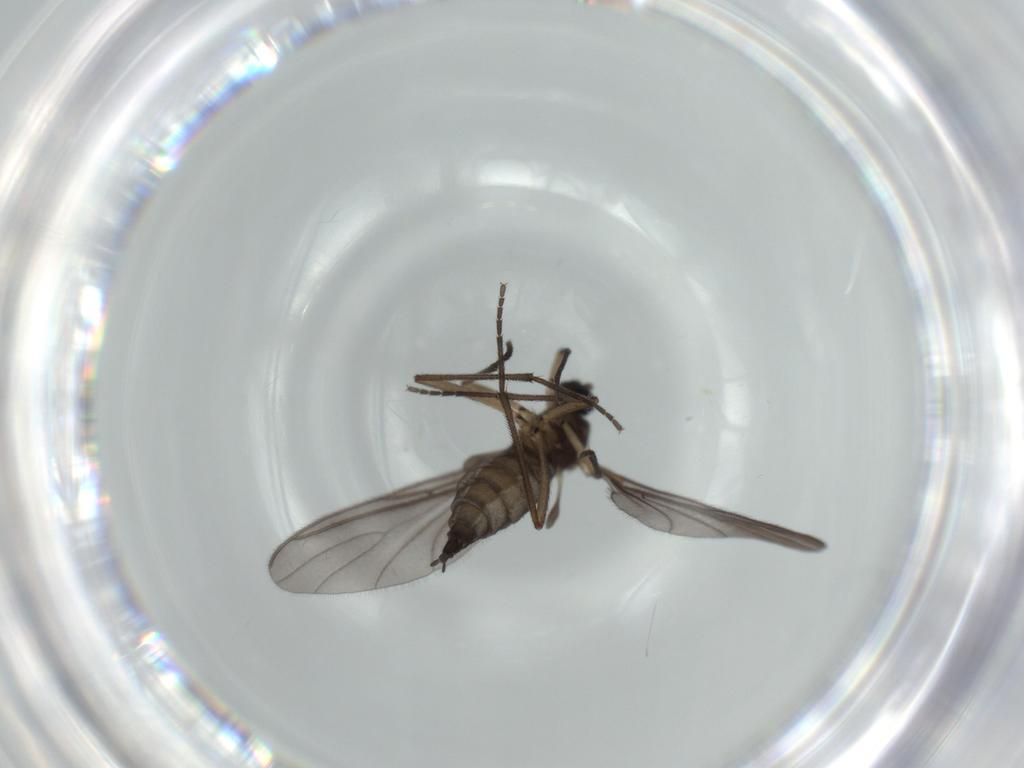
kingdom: Animalia
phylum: Arthropoda
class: Insecta
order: Diptera
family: Sciaridae
